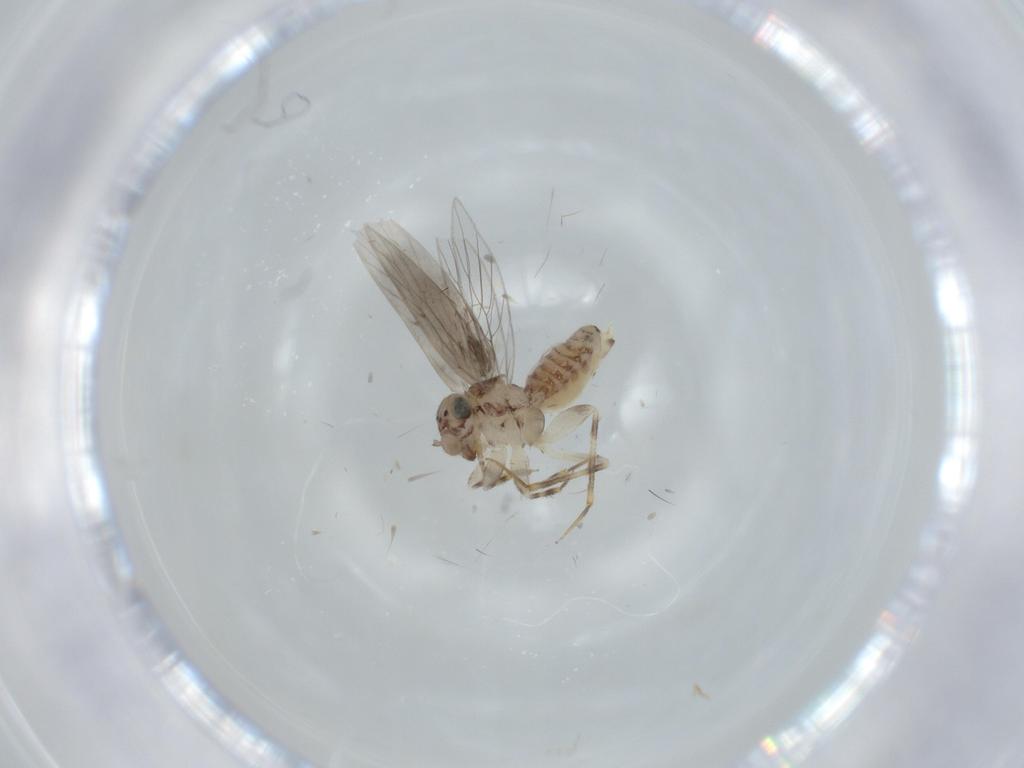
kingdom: Animalia
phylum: Arthropoda
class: Insecta
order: Psocodea
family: Lepidopsocidae
